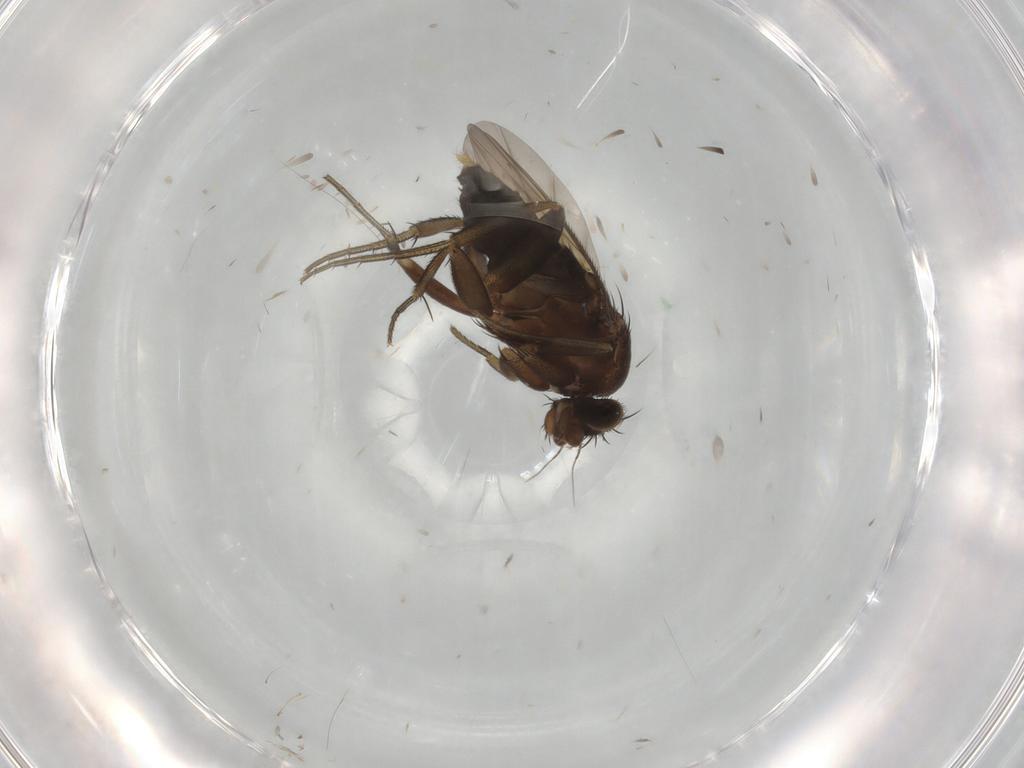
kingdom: Animalia
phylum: Arthropoda
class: Insecta
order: Diptera
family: Phoridae
